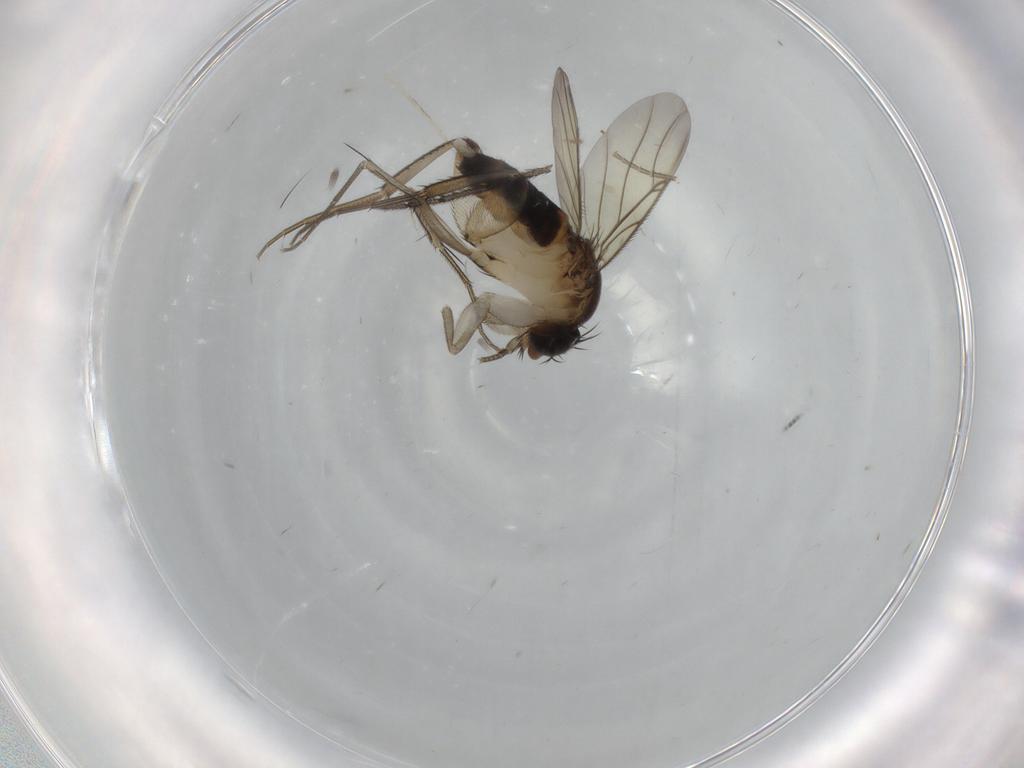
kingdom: Animalia
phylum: Arthropoda
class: Insecta
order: Diptera
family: Phoridae
